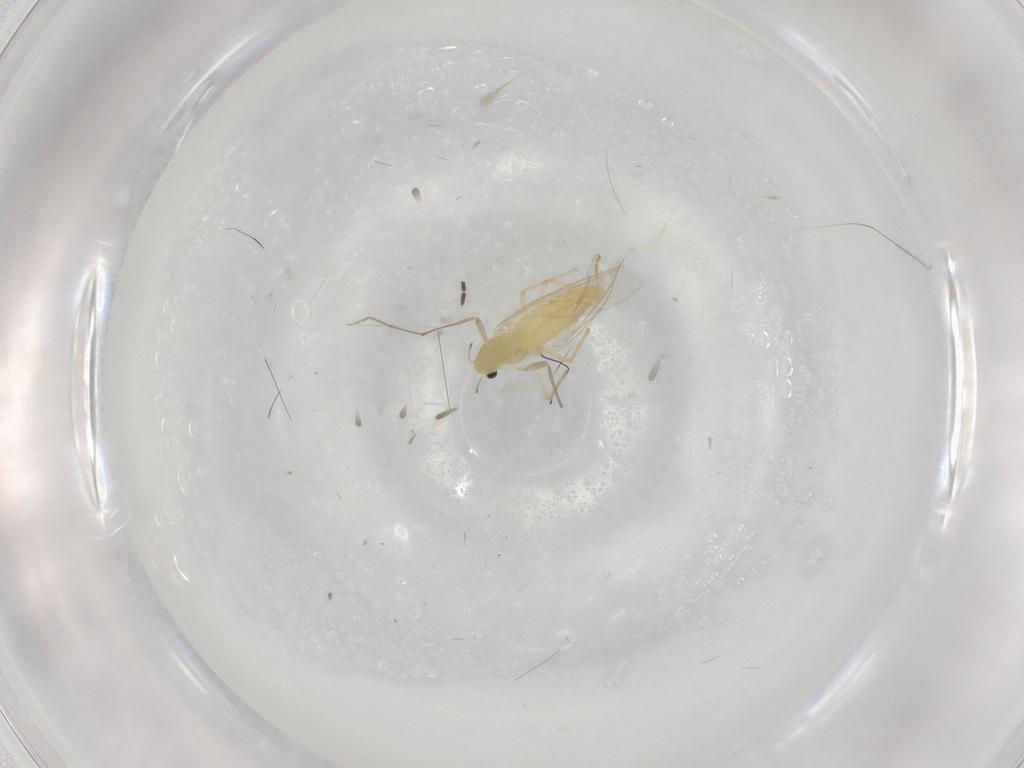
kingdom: Animalia
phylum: Arthropoda
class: Insecta
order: Diptera
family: Chironomidae
